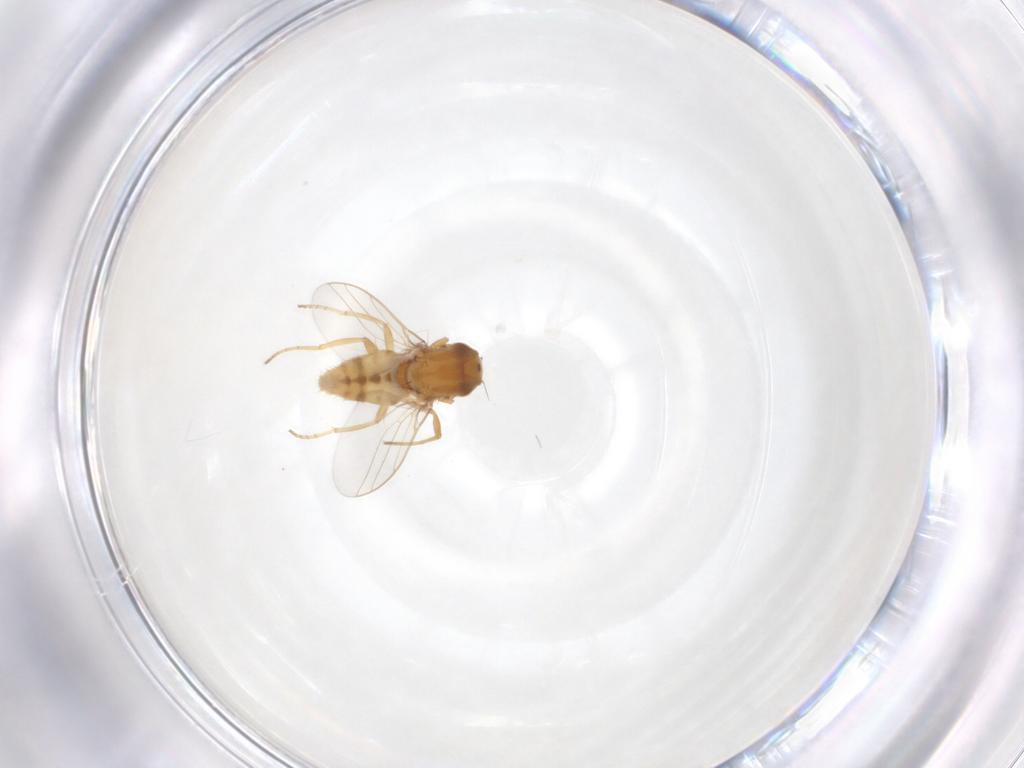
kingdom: Animalia
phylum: Arthropoda
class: Insecta
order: Diptera
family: Chloropidae
